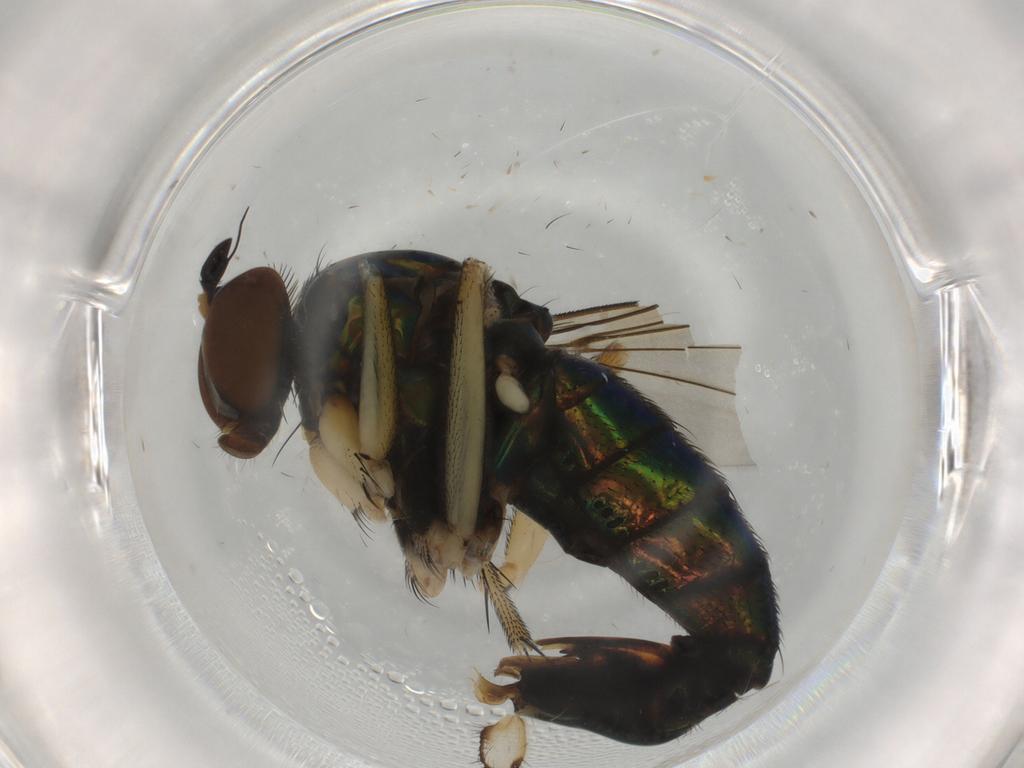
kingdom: Animalia
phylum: Arthropoda
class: Insecta
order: Diptera
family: Dolichopodidae
